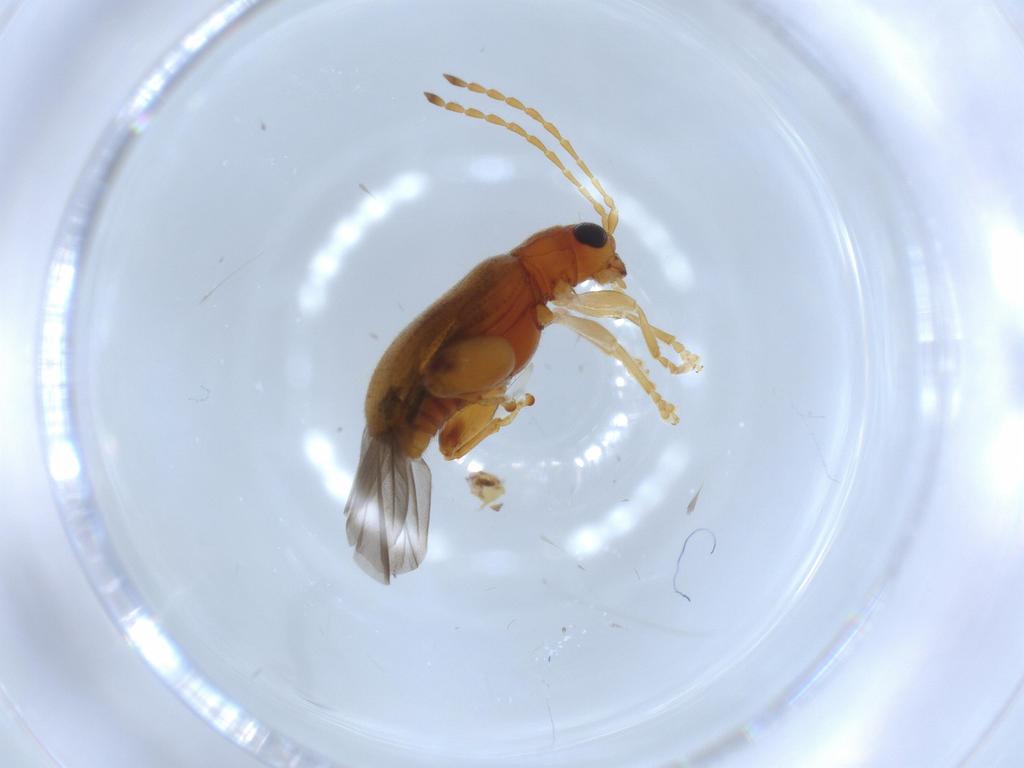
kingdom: Animalia
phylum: Arthropoda
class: Insecta
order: Coleoptera
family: Chrysomelidae
